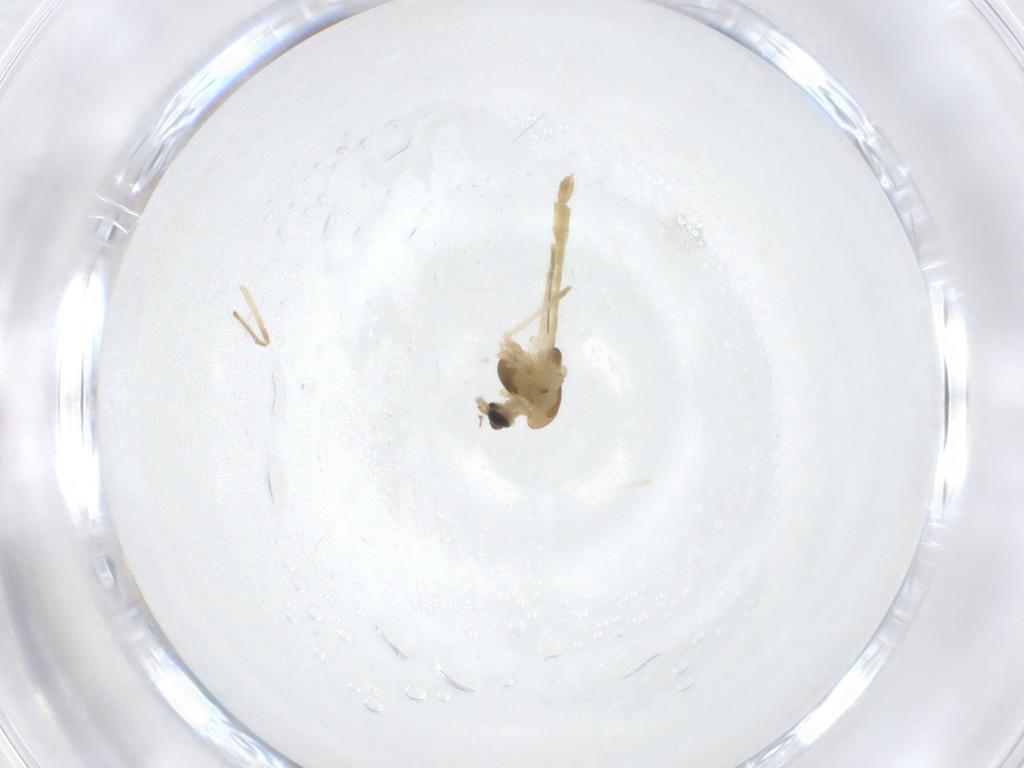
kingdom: Animalia
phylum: Arthropoda
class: Insecta
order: Diptera
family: Chironomidae
